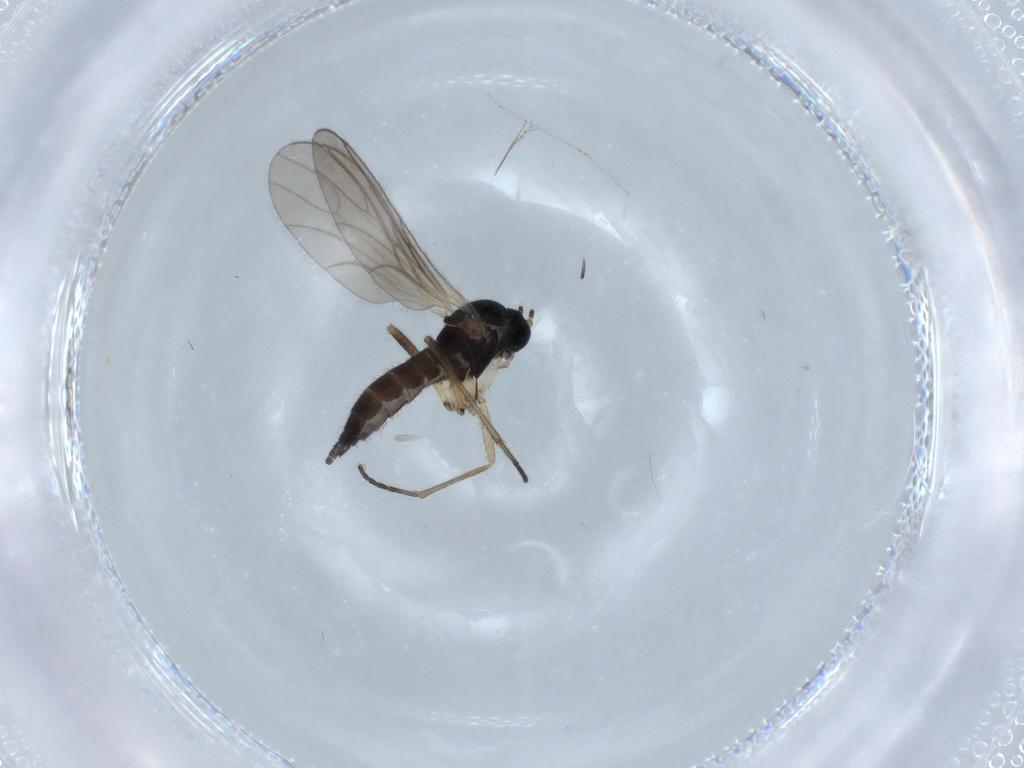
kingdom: Animalia
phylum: Arthropoda
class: Insecta
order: Diptera
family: Sciaridae
